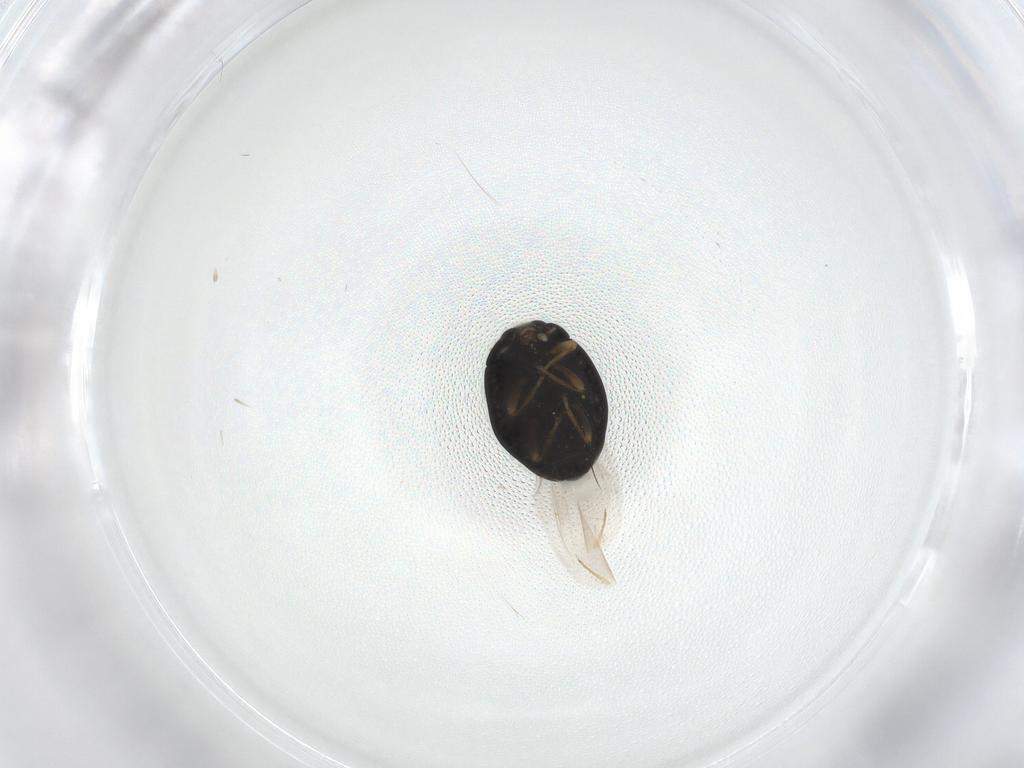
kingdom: Animalia
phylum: Arthropoda
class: Insecta
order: Coleoptera
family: Coccinellidae
